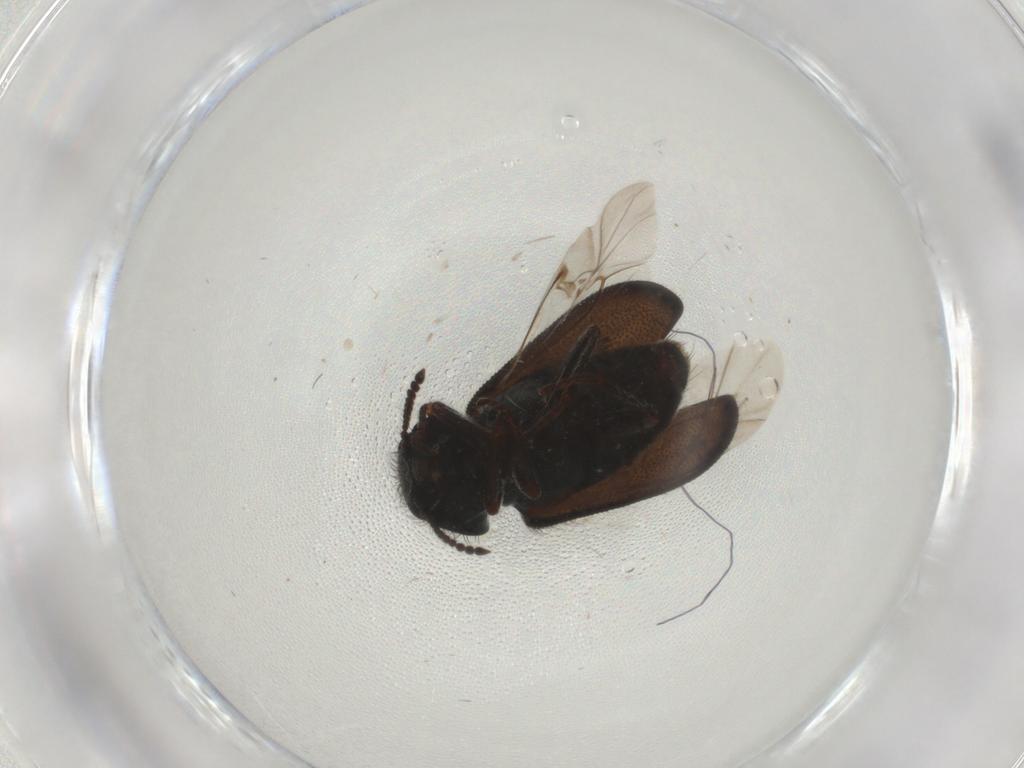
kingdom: Animalia
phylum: Arthropoda
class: Insecta
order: Coleoptera
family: Melyridae
